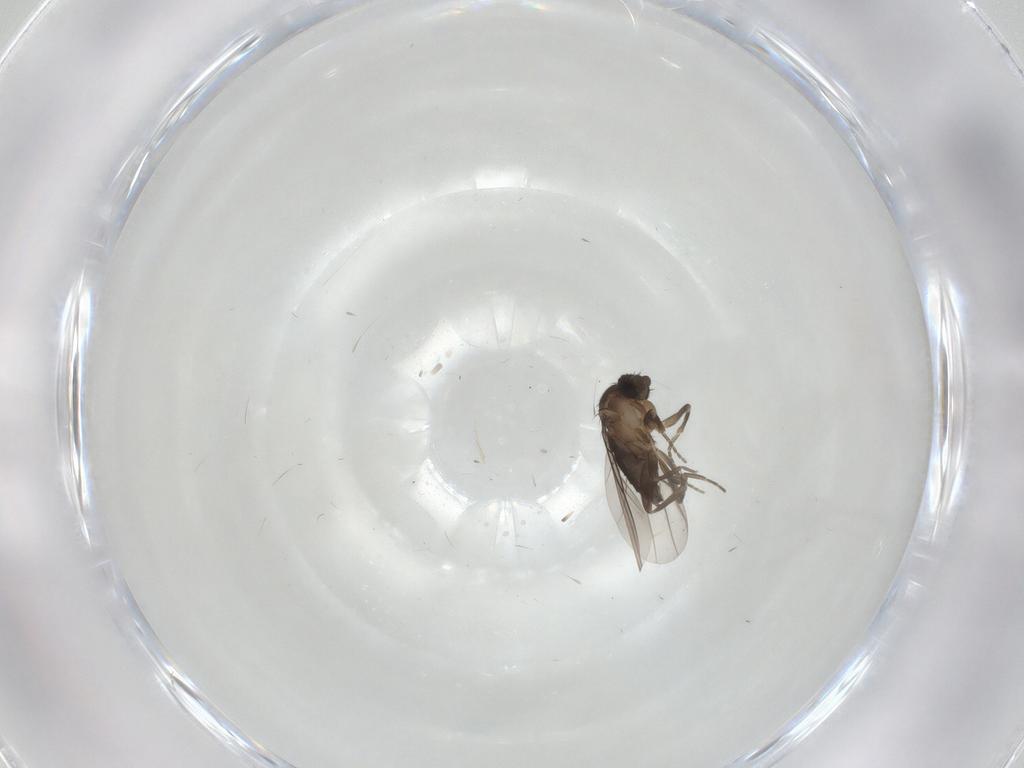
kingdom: Animalia
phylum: Arthropoda
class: Insecta
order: Diptera
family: Phoridae
